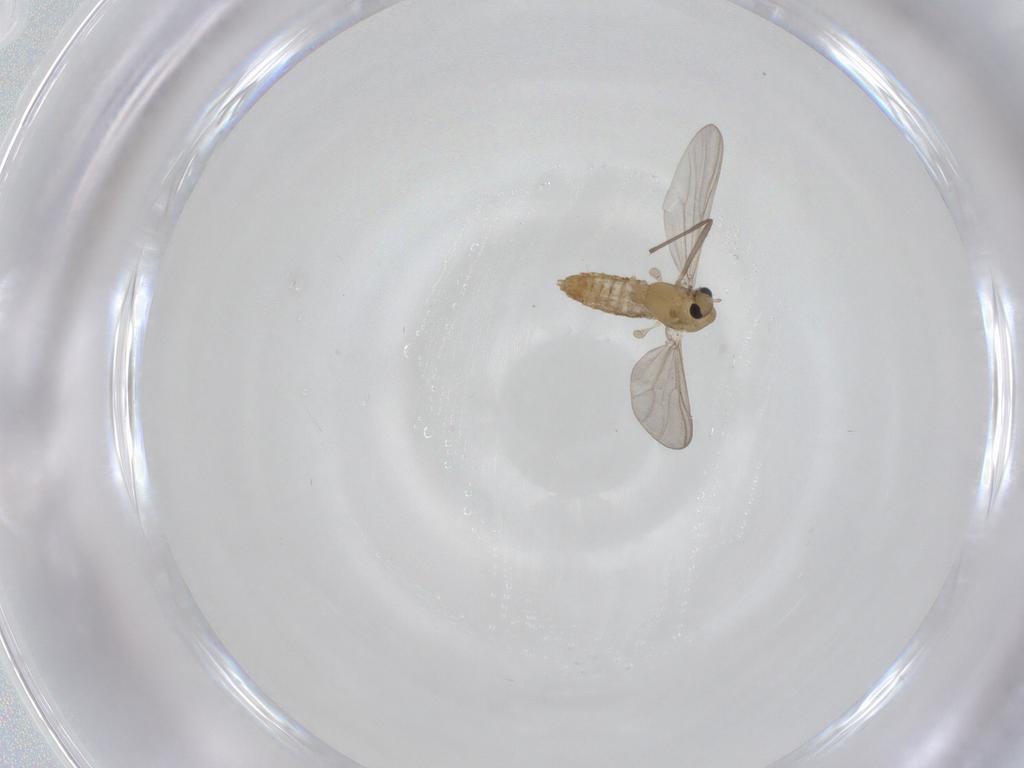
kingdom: Animalia
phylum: Arthropoda
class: Insecta
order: Diptera
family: Chironomidae
